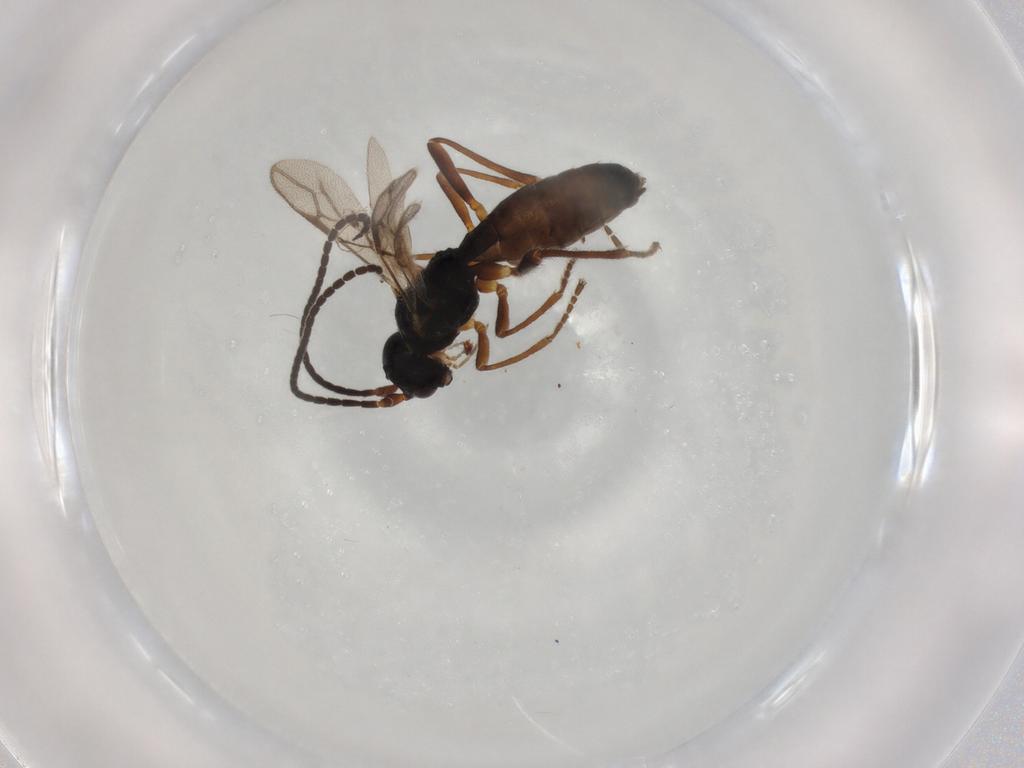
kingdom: Animalia
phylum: Arthropoda
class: Insecta
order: Hymenoptera
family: Braconidae
